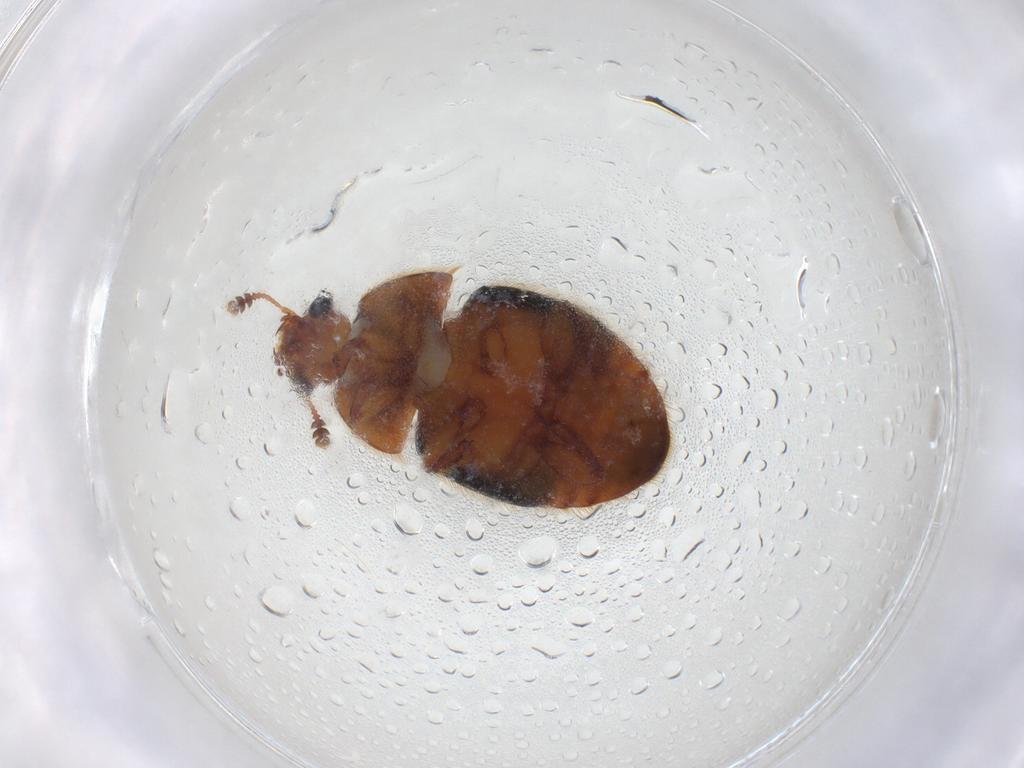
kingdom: Animalia
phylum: Arthropoda
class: Insecta
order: Coleoptera
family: Nitidulidae
